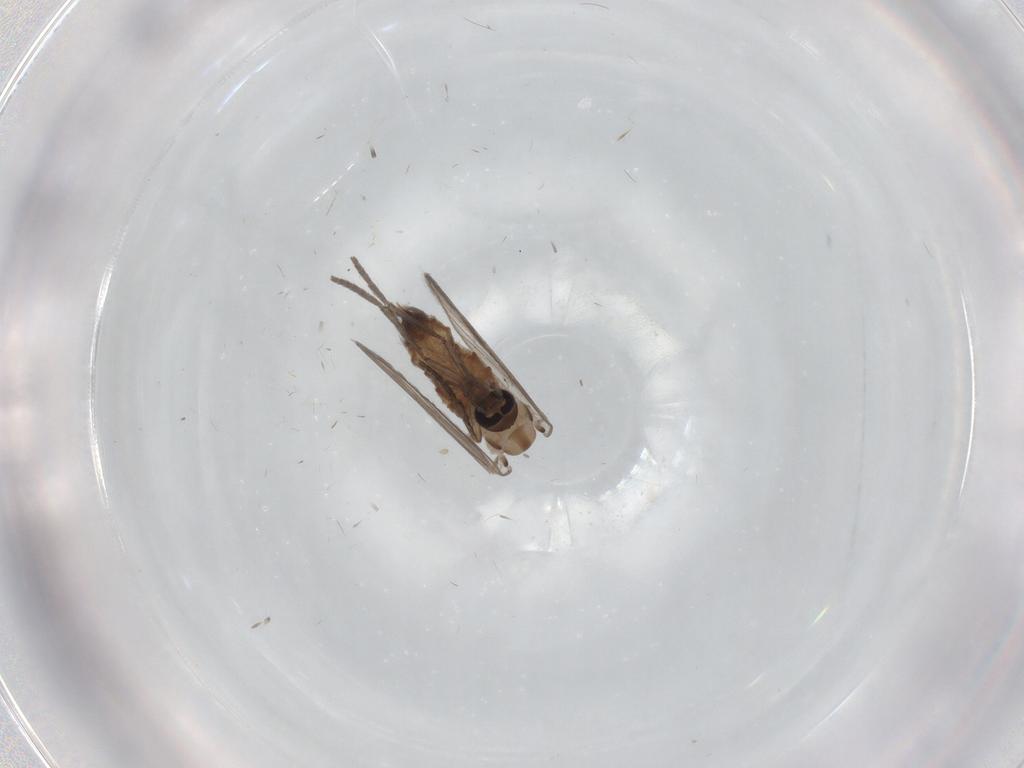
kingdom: Animalia
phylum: Arthropoda
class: Insecta
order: Diptera
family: Psychodidae
